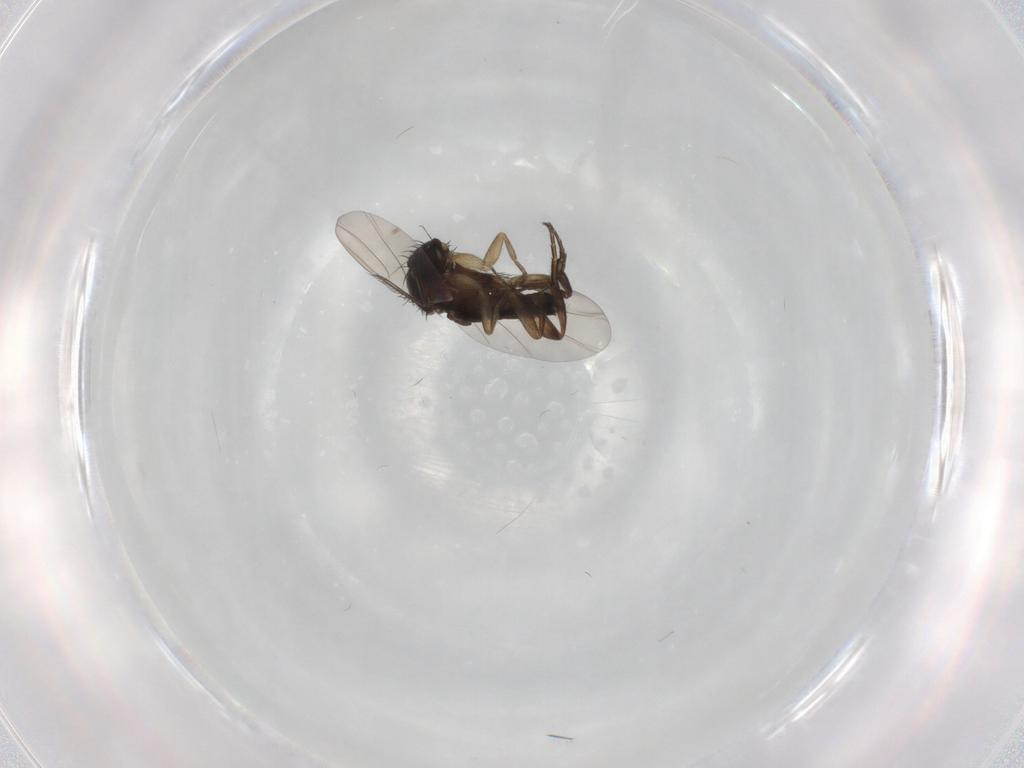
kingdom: Animalia
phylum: Arthropoda
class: Insecta
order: Diptera
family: Phoridae
